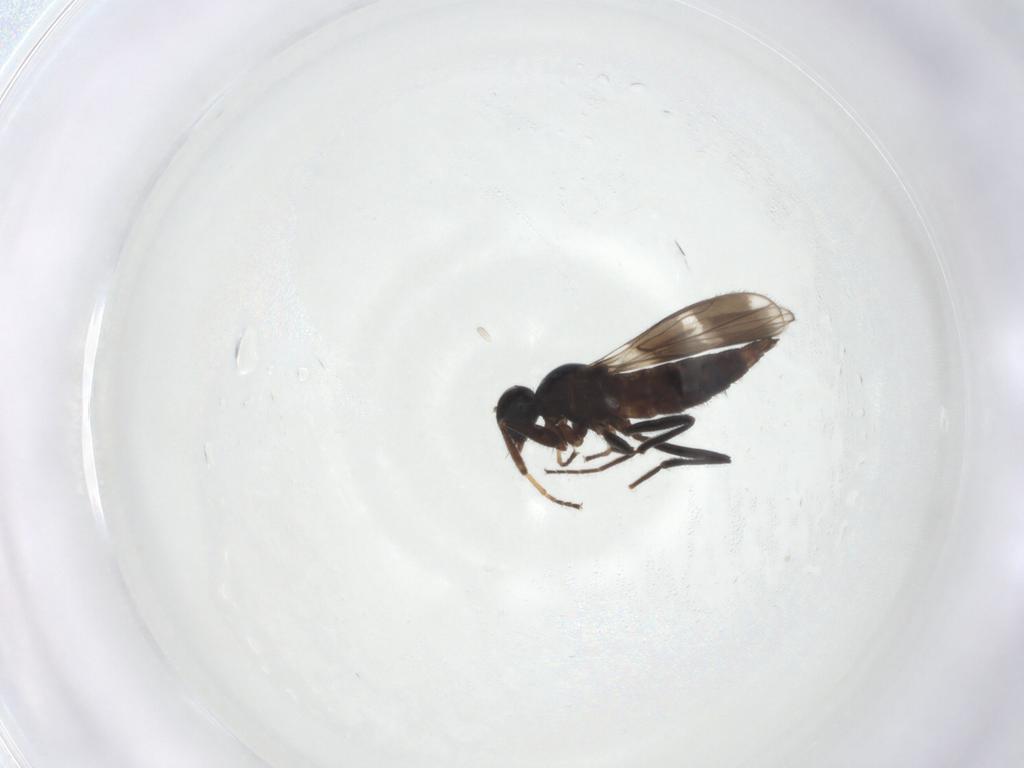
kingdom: Animalia
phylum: Arthropoda
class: Insecta
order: Diptera
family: Hybotidae
